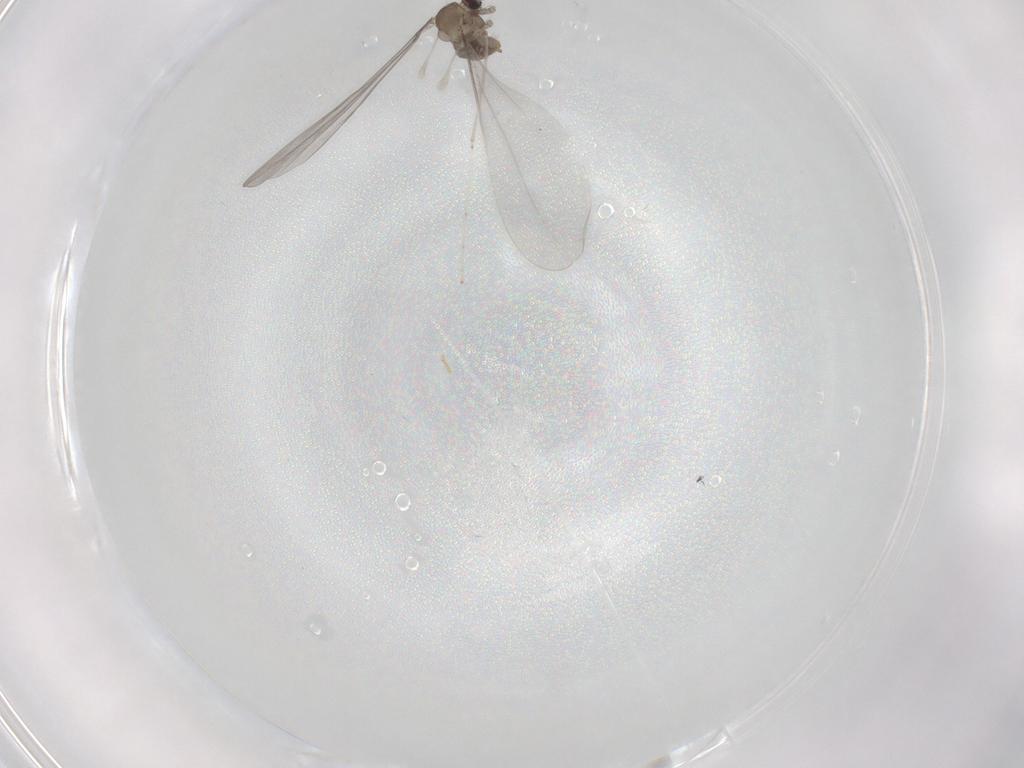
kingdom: Animalia
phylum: Arthropoda
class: Insecta
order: Diptera
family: Cecidomyiidae
